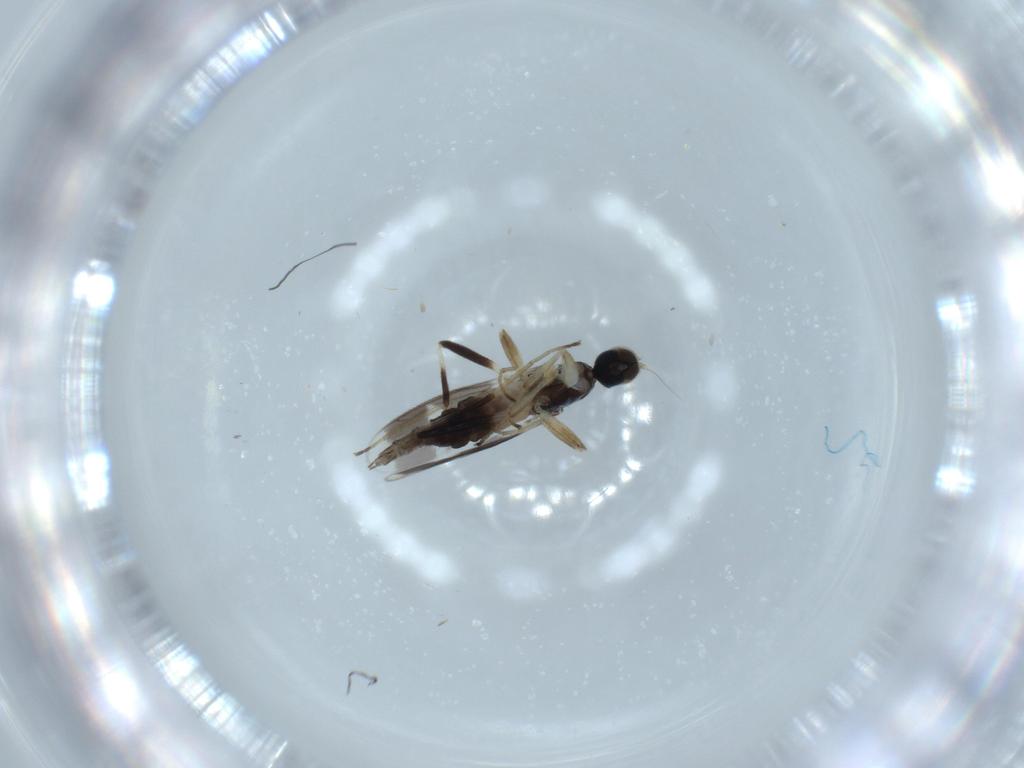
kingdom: Animalia
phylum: Arthropoda
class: Insecta
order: Diptera
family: Hybotidae
